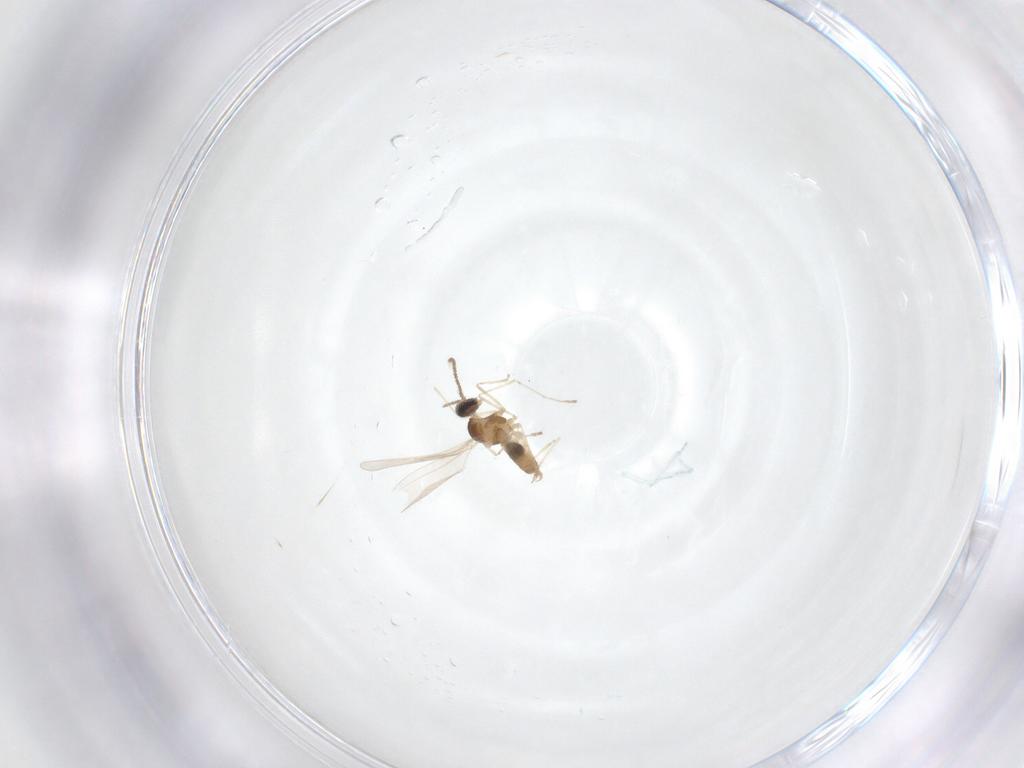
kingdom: Animalia
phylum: Arthropoda
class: Insecta
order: Diptera
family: Cecidomyiidae
